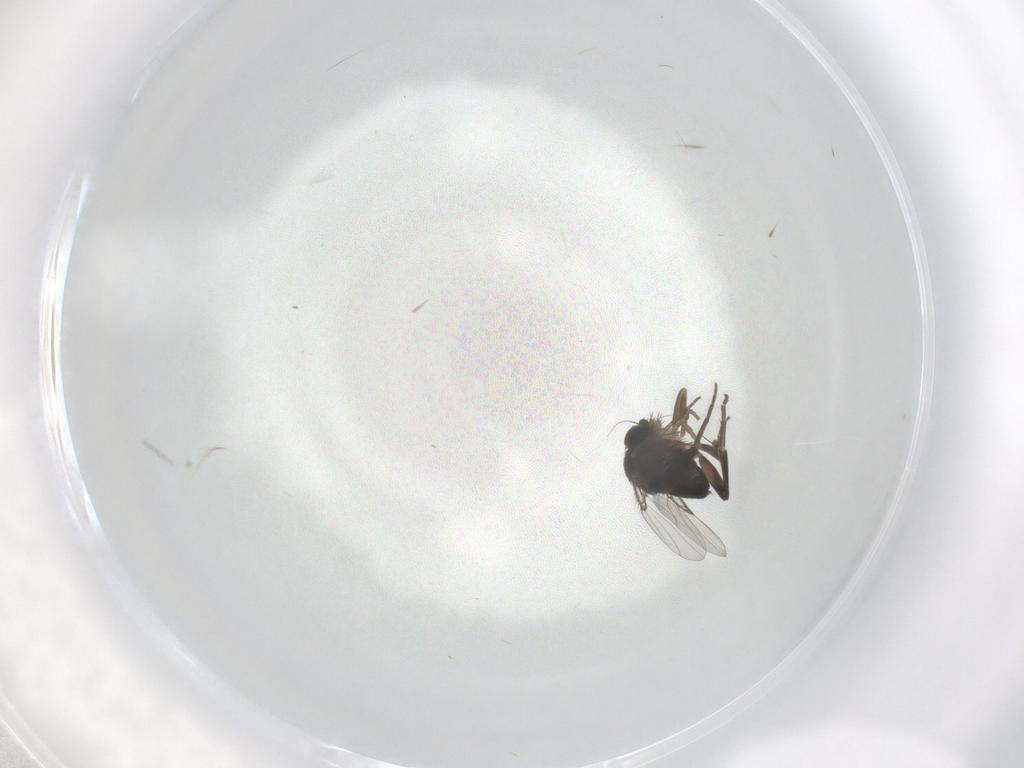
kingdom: Animalia
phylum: Arthropoda
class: Insecta
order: Diptera
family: Phoridae
